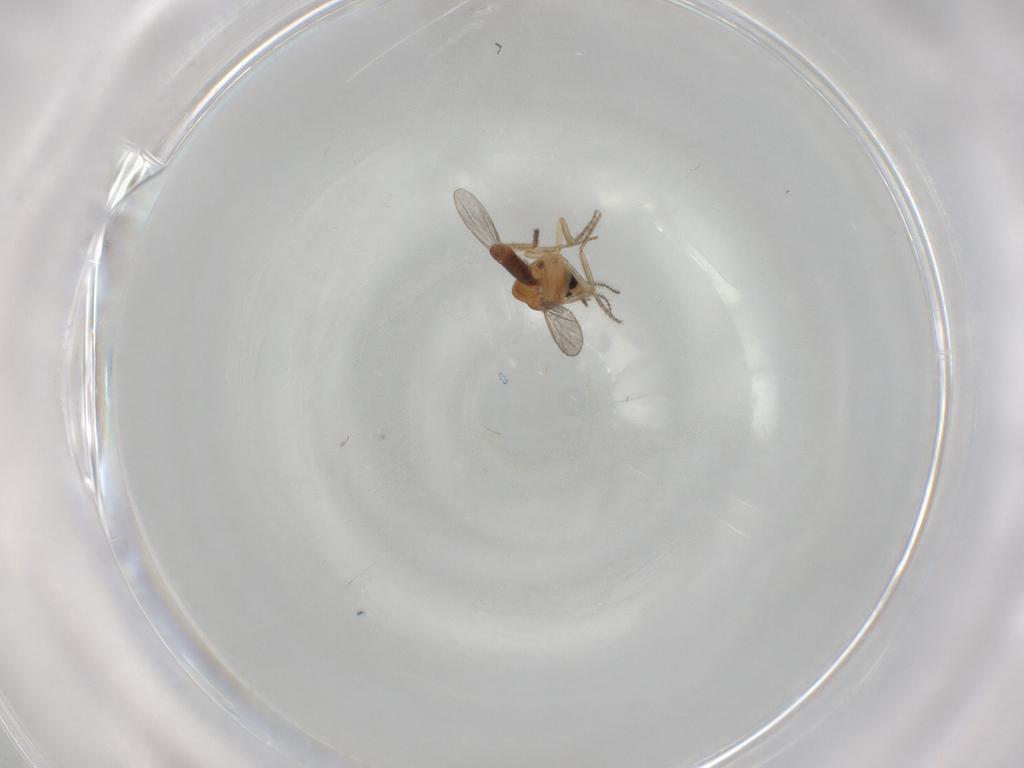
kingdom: Animalia
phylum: Arthropoda
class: Insecta
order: Diptera
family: Ceratopogonidae
